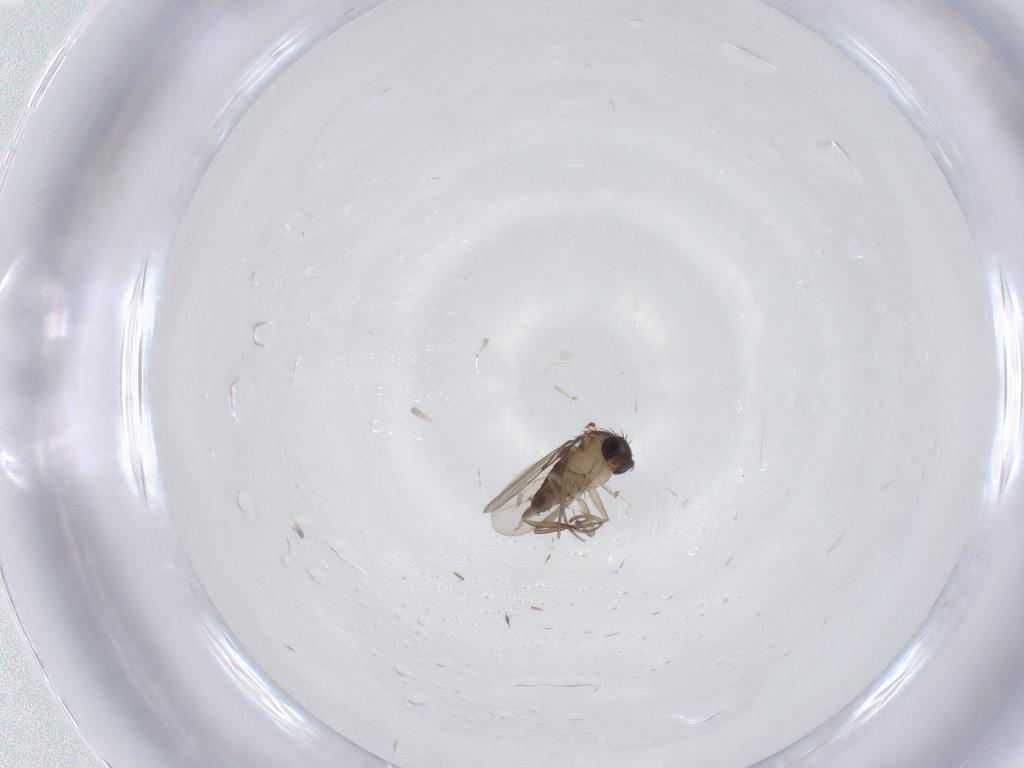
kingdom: Animalia
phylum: Arthropoda
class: Insecta
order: Diptera
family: Chironomidae
